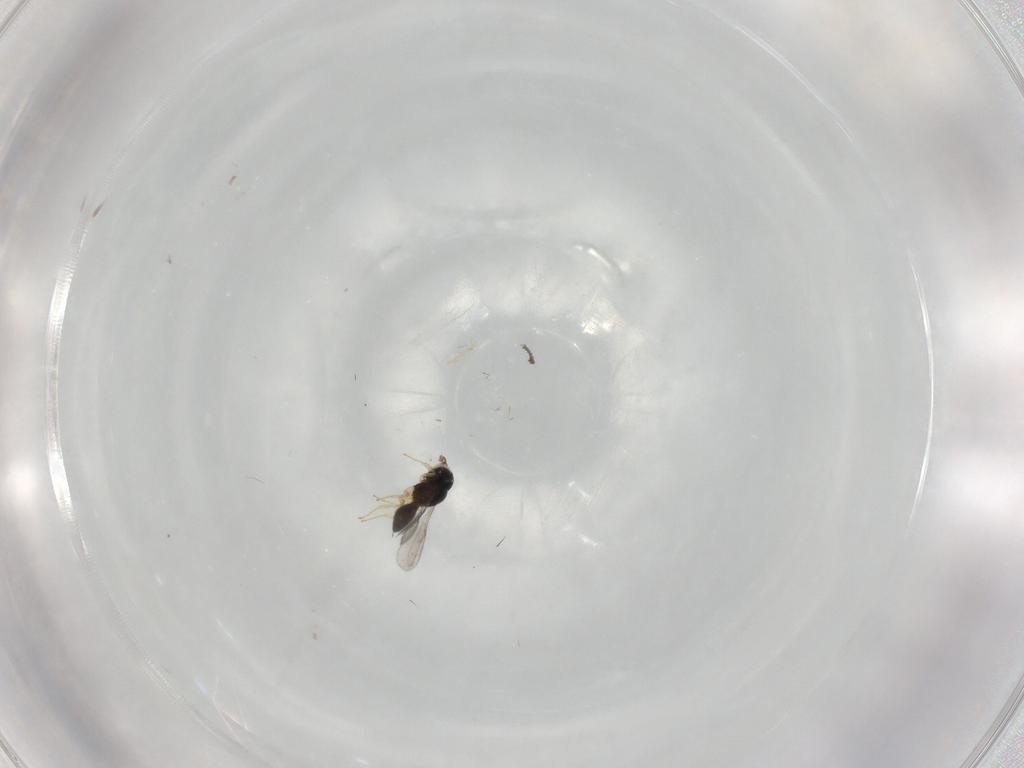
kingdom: Animalia
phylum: Arthropoda
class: Insecta
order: Hymenoptera
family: Scelionidae
